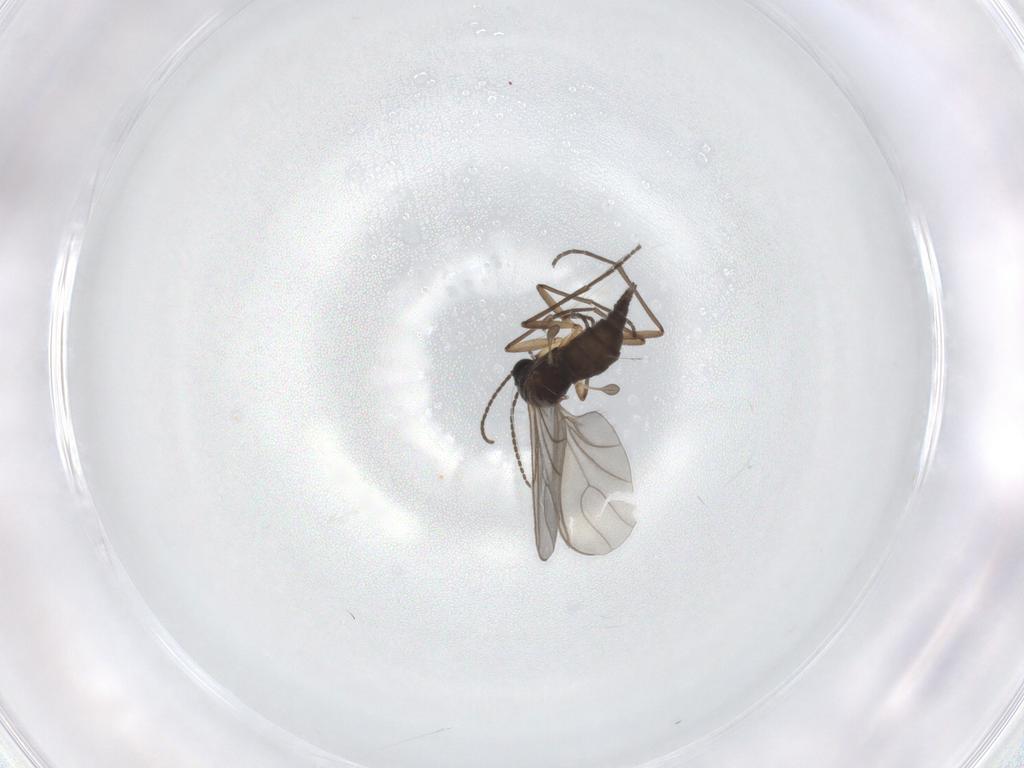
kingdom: Animalia
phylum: Arthropoda
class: Insecta
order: Diptera
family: Sciaridae
